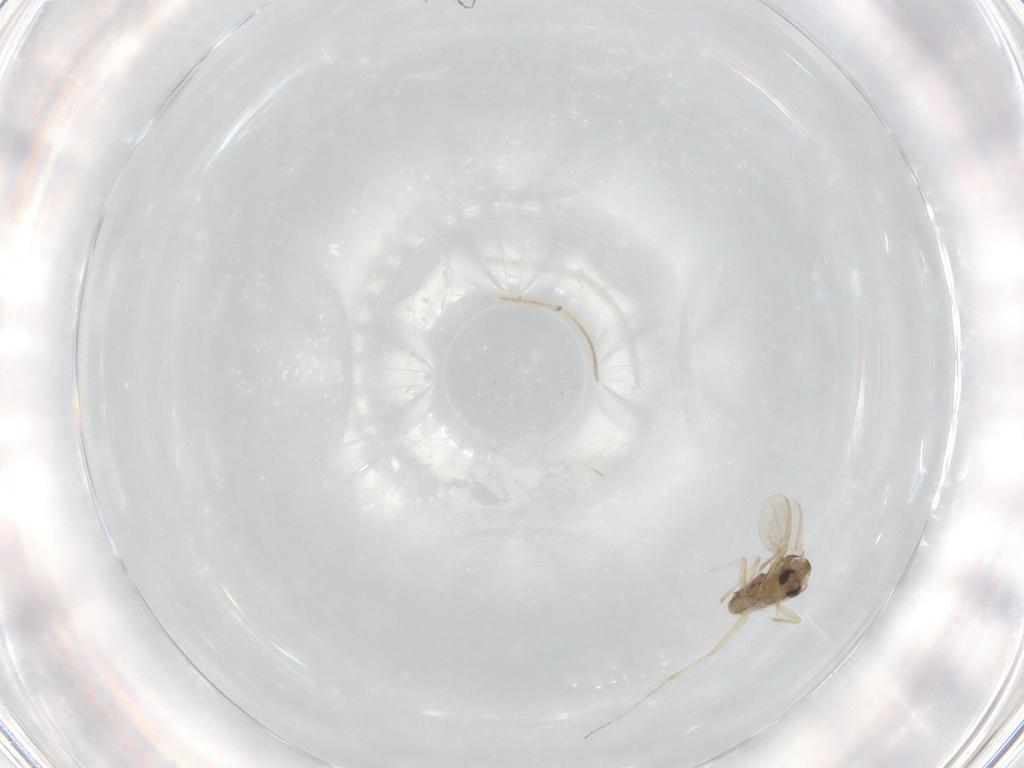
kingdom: Animalia
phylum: Arthropoda
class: Insecta
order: Diptera
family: Chironomidae
